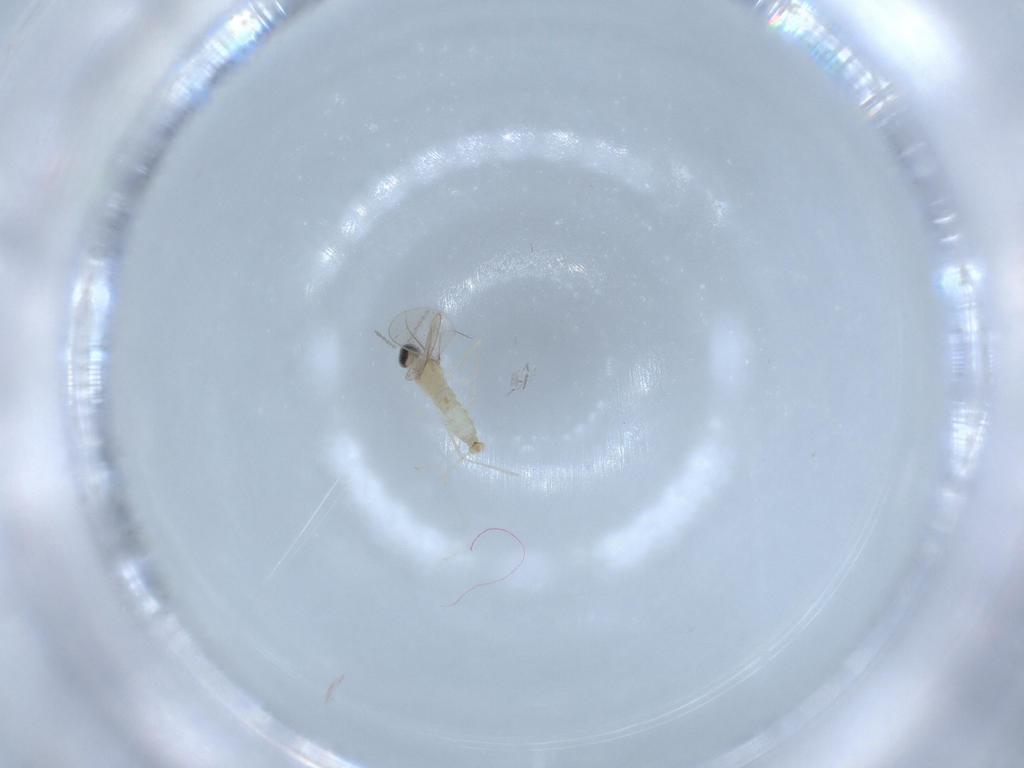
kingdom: Animalia
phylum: Arthropoda
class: Insecta
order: Diptera
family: Cecidomyiidae
